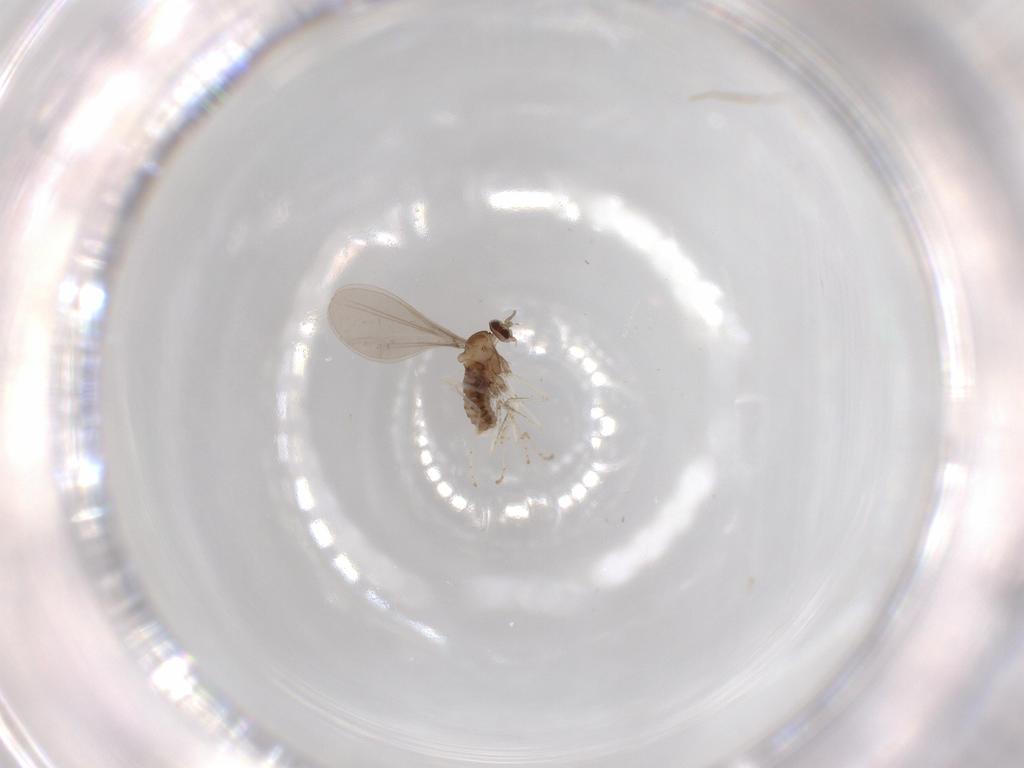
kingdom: Animalia
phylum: Arthropoda
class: Insecta
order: Diptera
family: Cecidomyiidae
